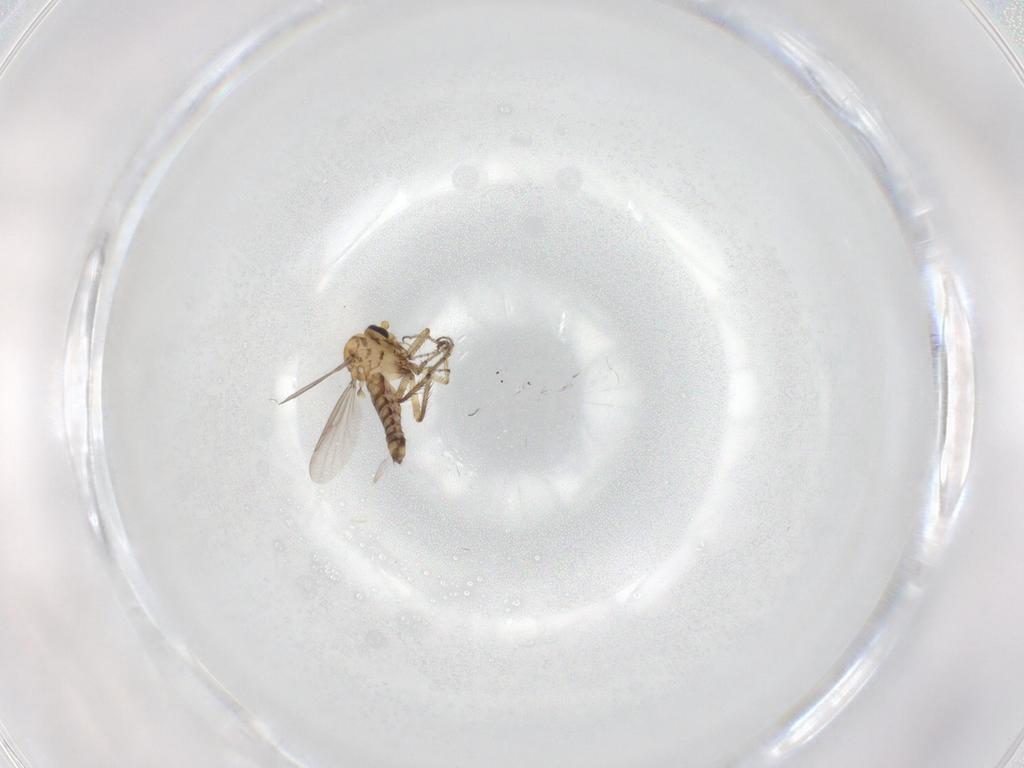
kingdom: Animalia
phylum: Arthropoda
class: Insecta
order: Diptera
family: Ceratopogonidae
